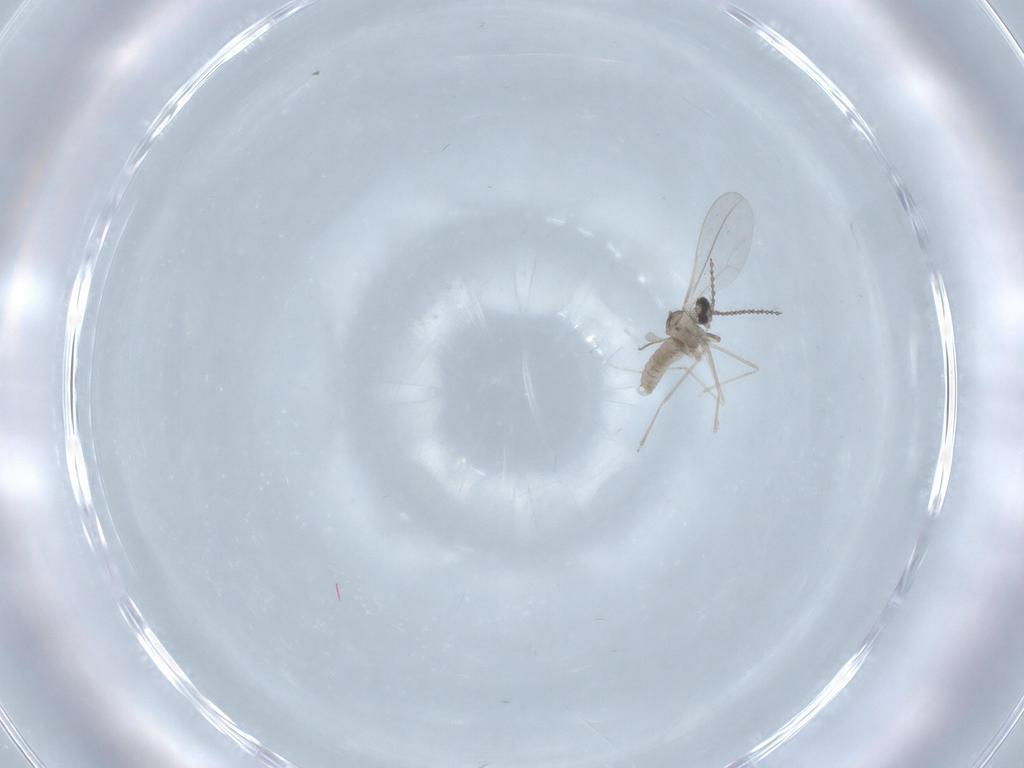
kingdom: Animalia
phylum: Arthropoda
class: Insecta
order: Diptera
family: Cecidomyiidae
